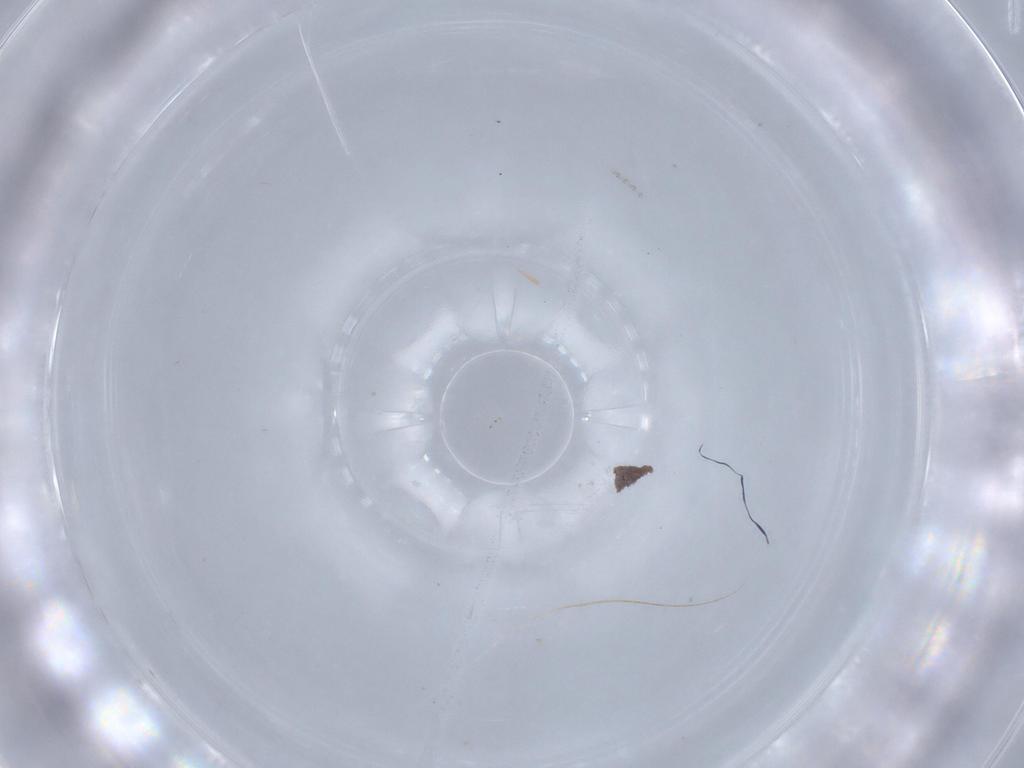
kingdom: Animalia
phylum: Arthropoda
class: Insecta
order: Diptera
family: Cecidomyiidae
